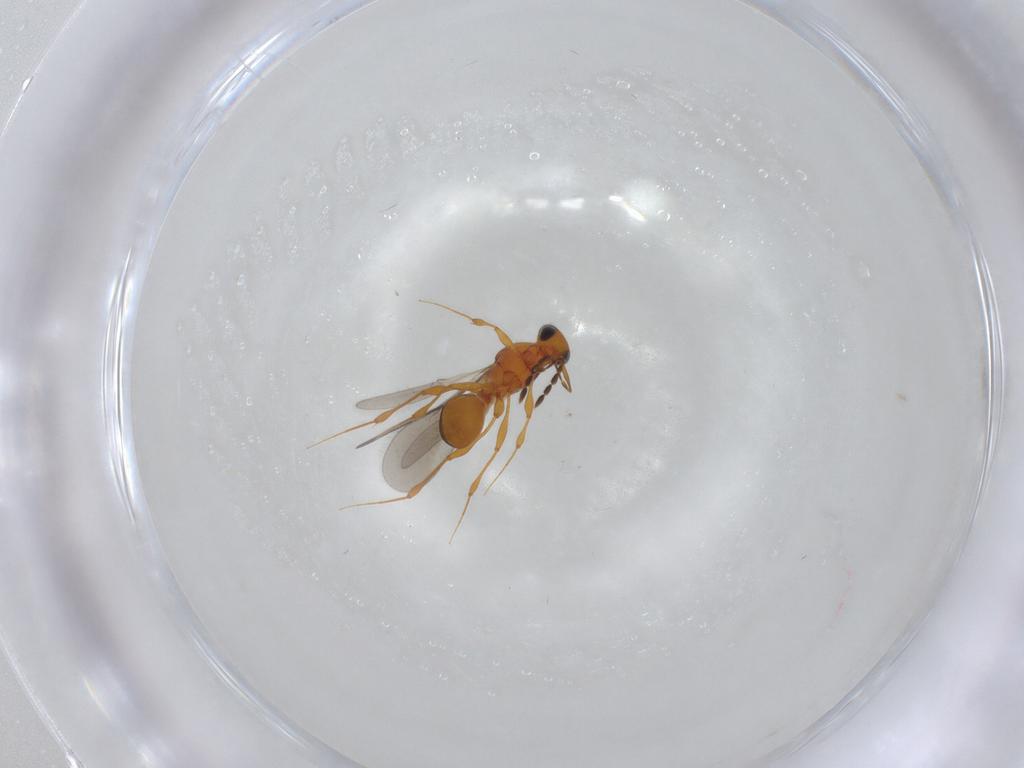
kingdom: Animalia
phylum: Arthropoda
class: Insecta
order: Hymenoptera
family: Platygastridae
